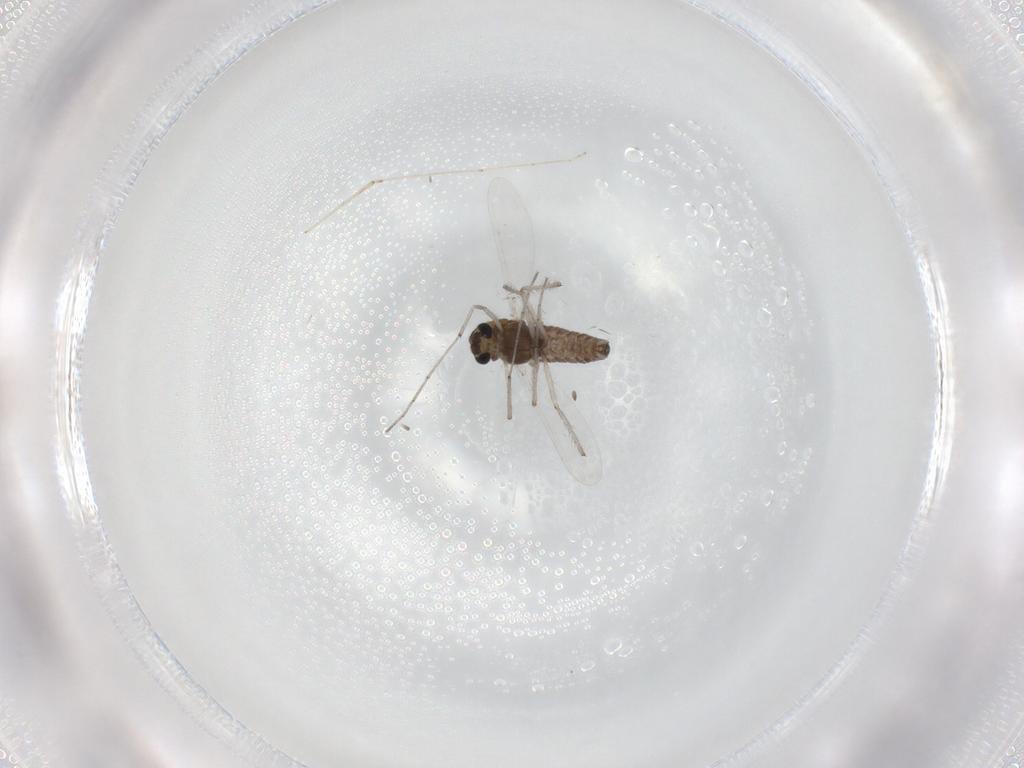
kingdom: Animalia
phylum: Arthropoda
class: Insecta
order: Diptera
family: Chironomidae
